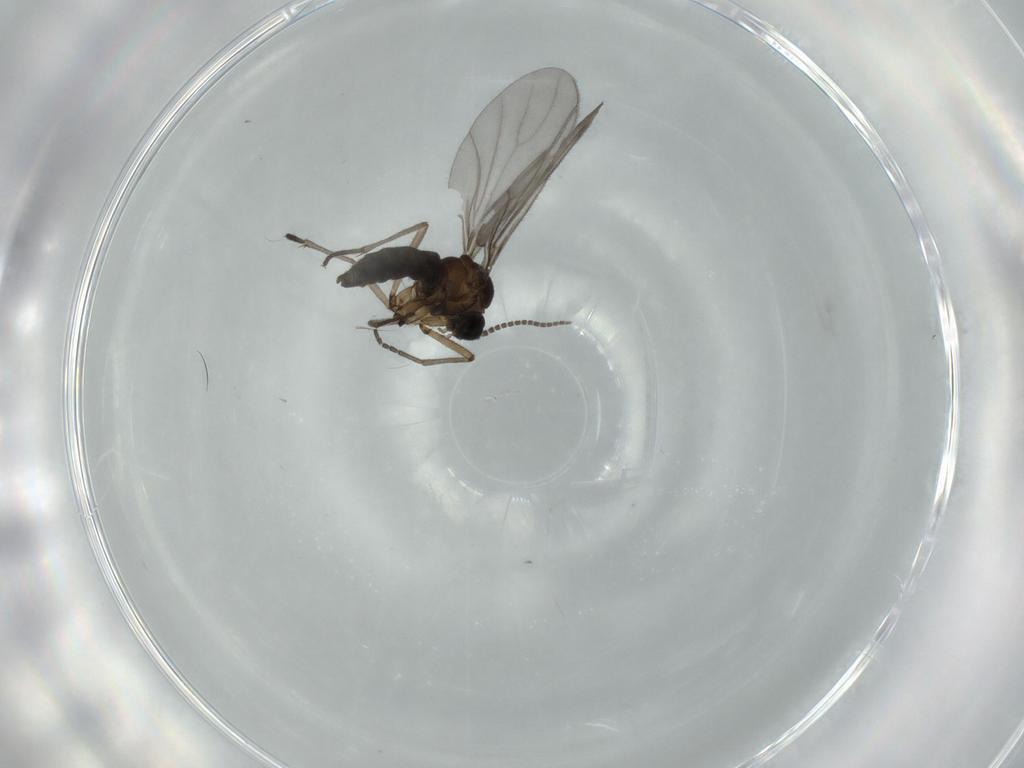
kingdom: Animalia
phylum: Arthropoda
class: Insecta
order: Diptera
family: Sciaridae
